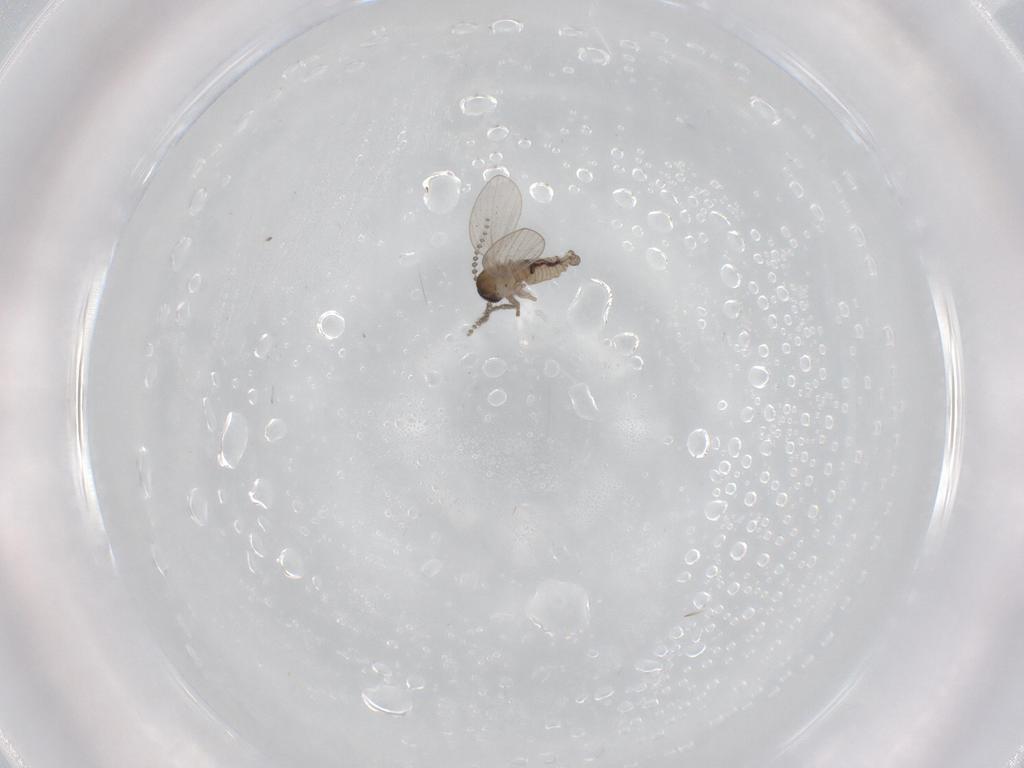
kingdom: Animalia
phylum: Arthropoda
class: Insecta
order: Diptera
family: Psychodidae
